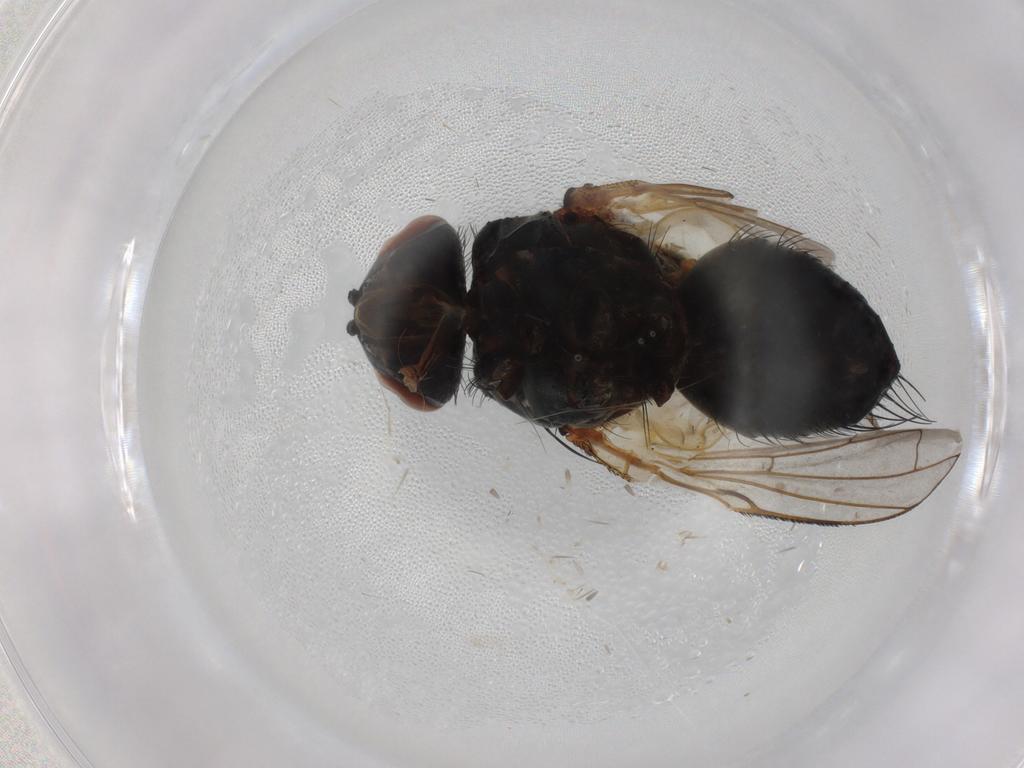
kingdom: Animalia
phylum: Arthropoda
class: Insecta
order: Diptera
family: Tachinidae
